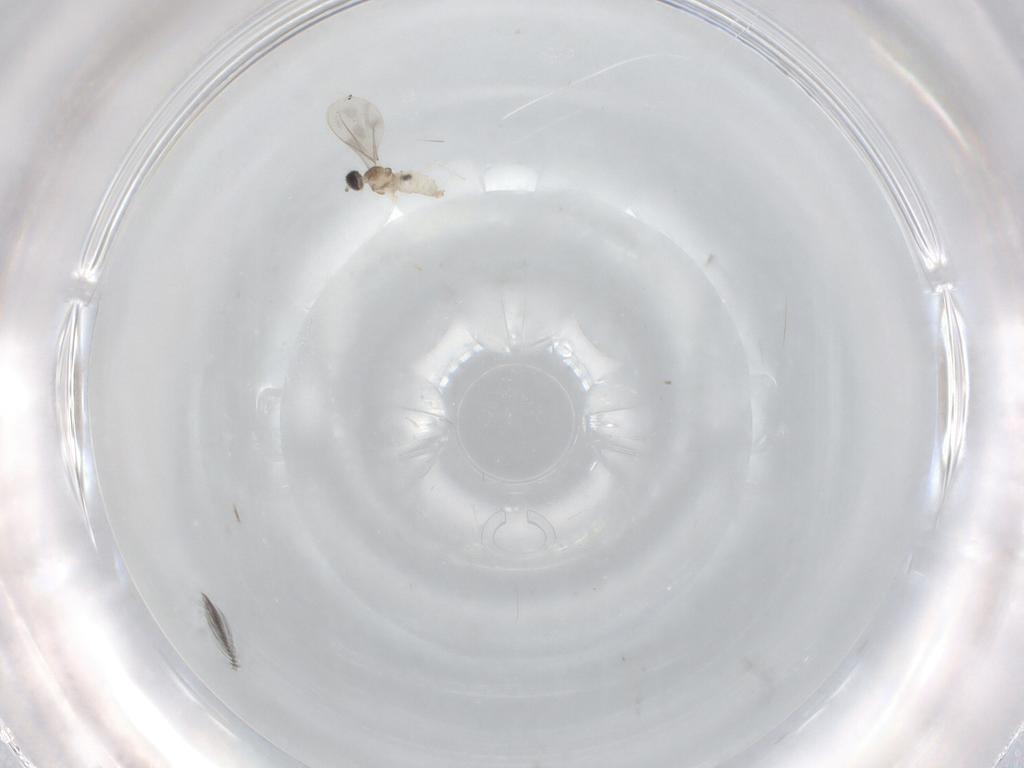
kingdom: Animalia
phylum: Arthropoda
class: Insecta
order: Diptera
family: Cecidomyiidae
